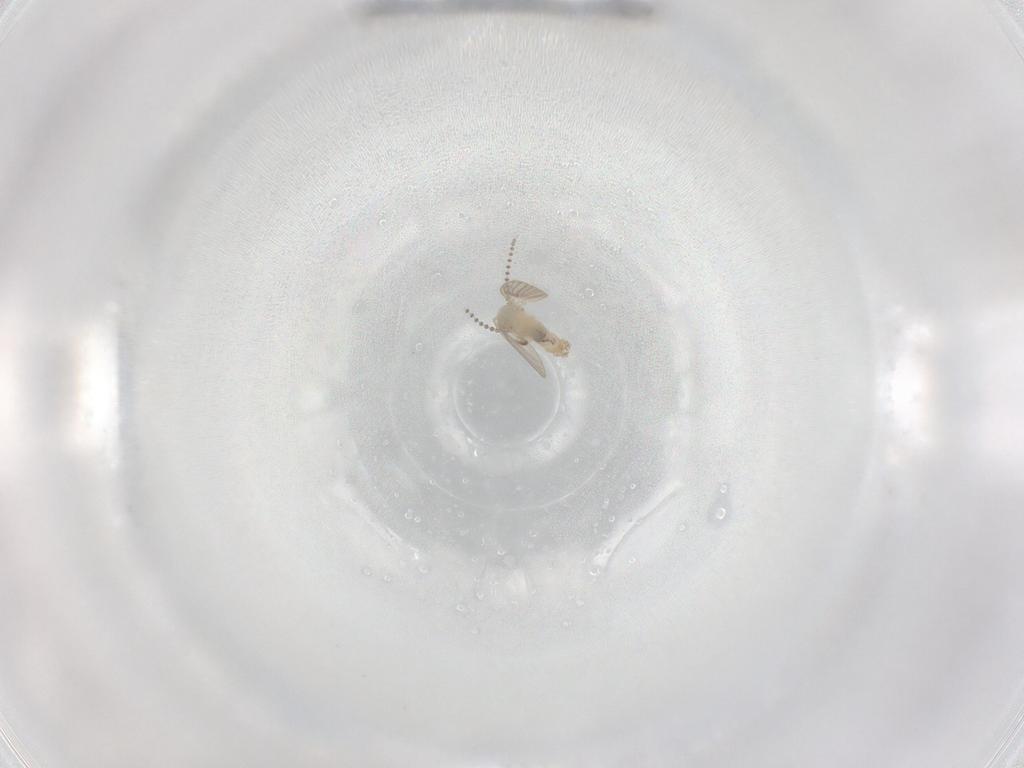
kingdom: Animalia
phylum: Arthropoda
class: Insecta
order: Diptera
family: Psychodidae
